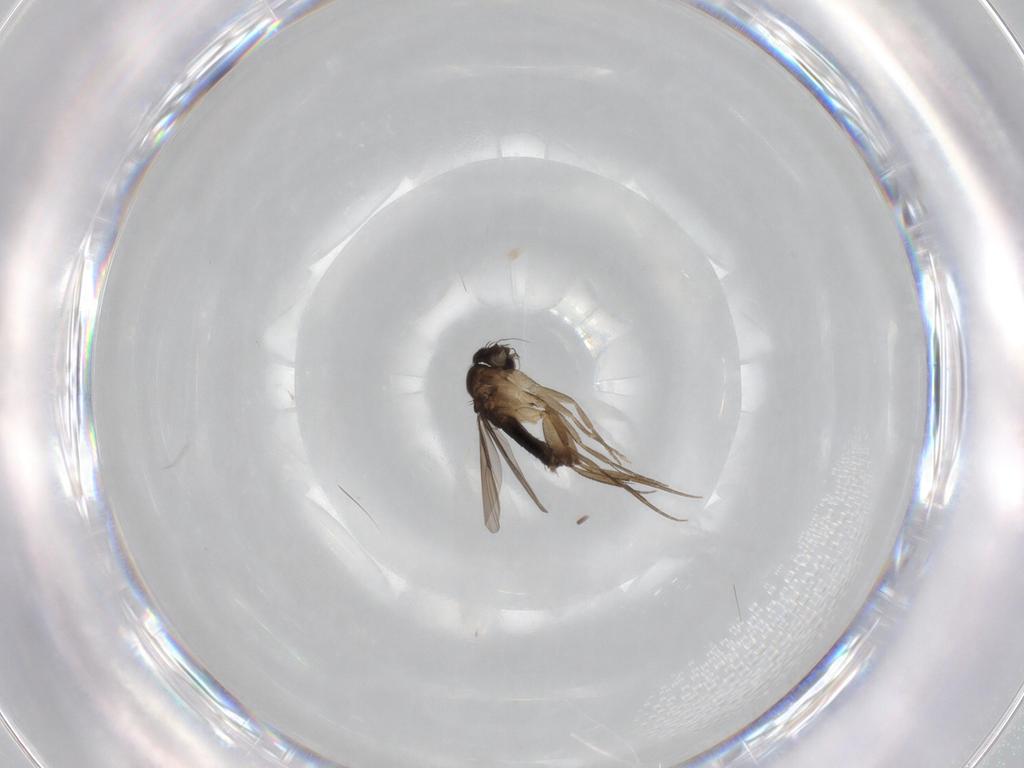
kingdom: Animalia
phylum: Arthropoda
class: Insecta
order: Diptera
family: Phoridae
